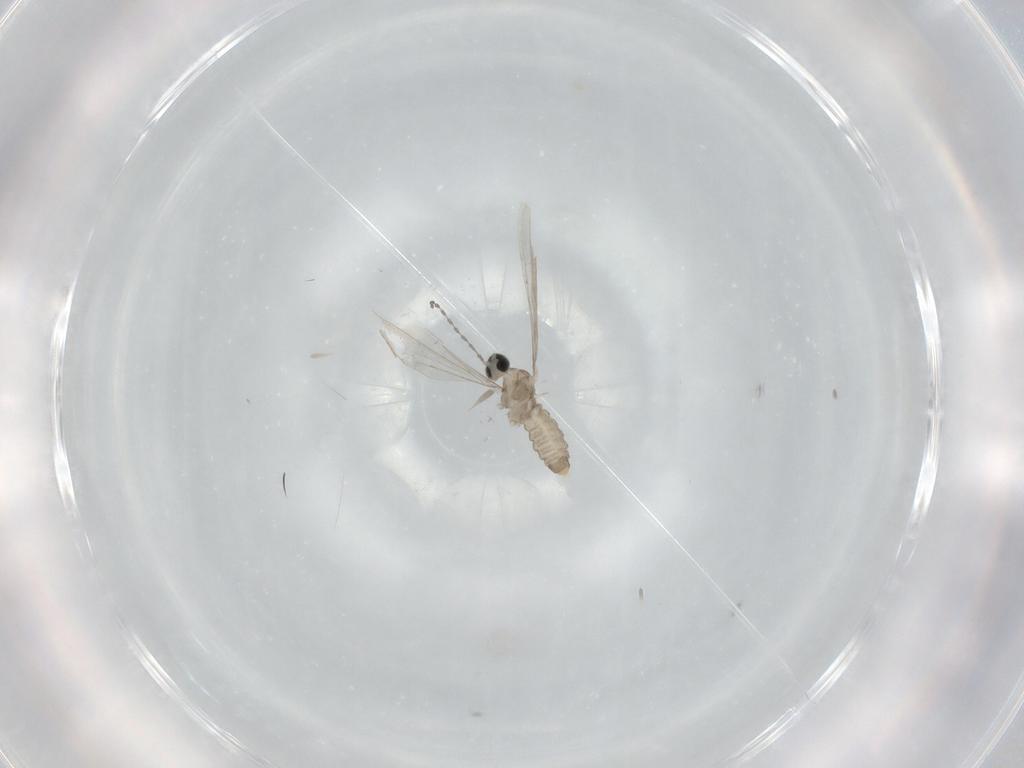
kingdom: Animalia
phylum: Arthropoda
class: Insecta
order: Diptera
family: Cecidomyiidae
